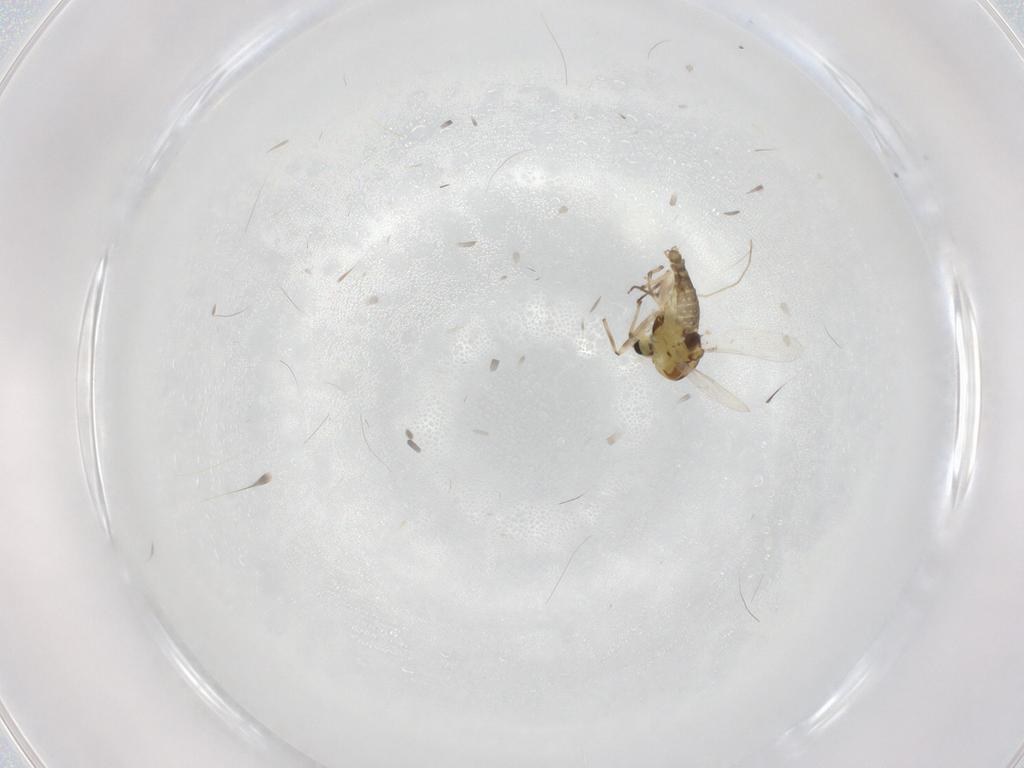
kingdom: Animalia
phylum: Arthropoda
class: Insecta
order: Diptera
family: Chironomidae
